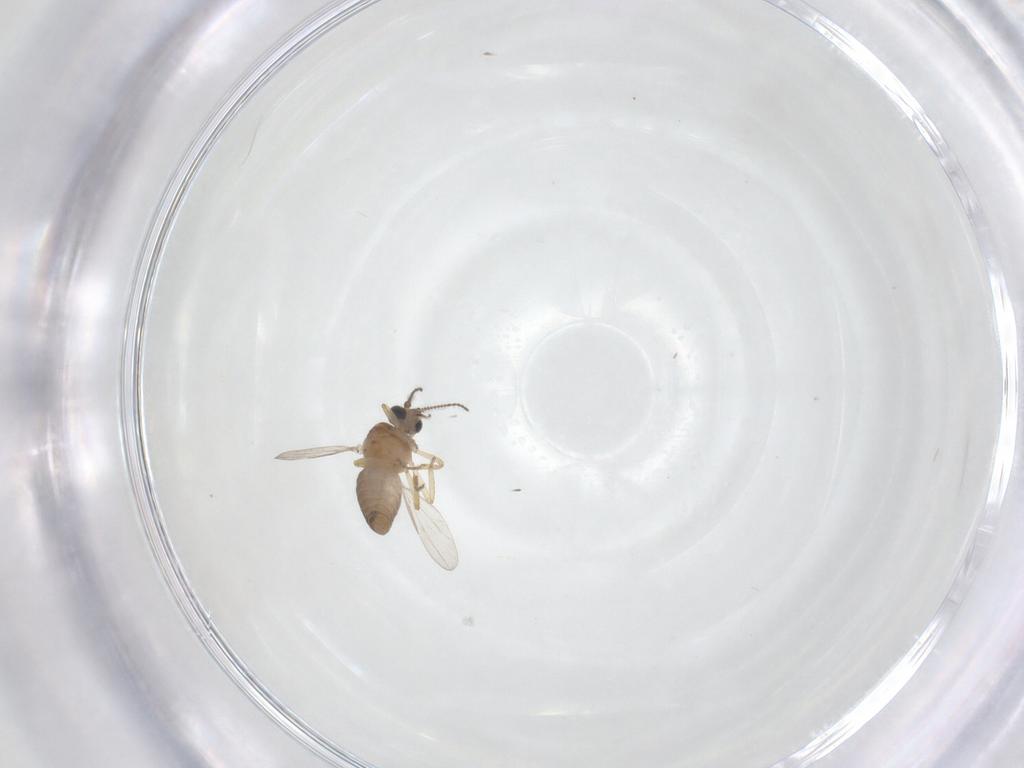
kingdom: Animalia
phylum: Arthropoda
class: Insecta
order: Diptera
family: Ceratopogonidae
